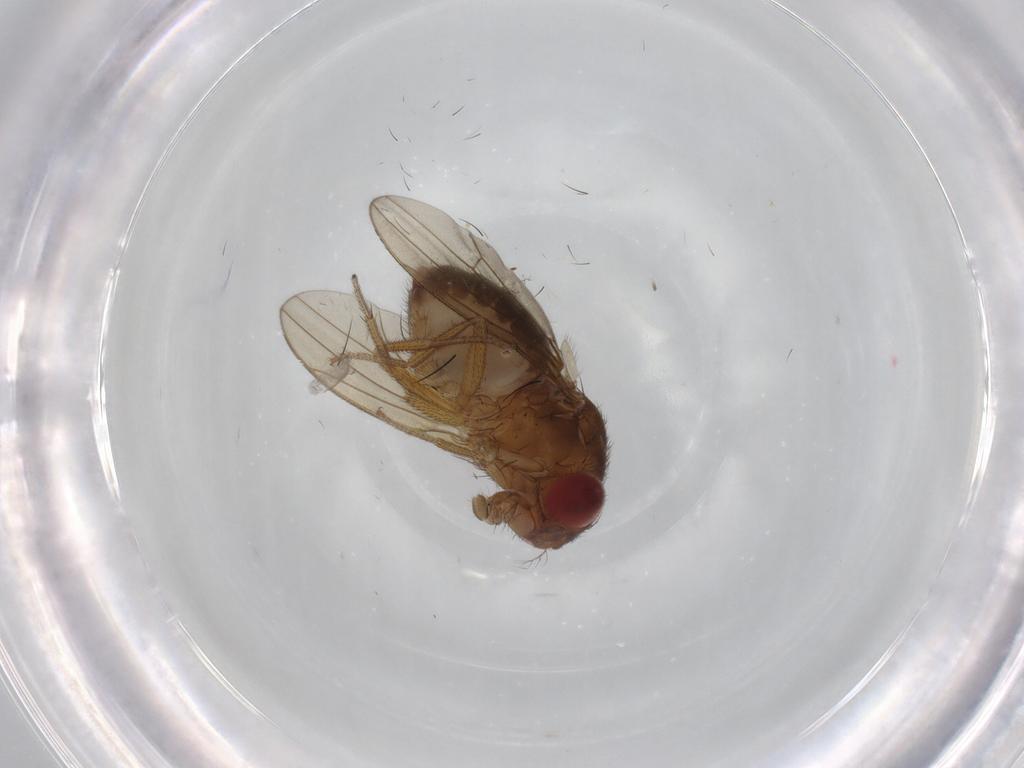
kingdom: Animalia
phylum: Arthropoda
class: Insecta
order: Diptera
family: Drosophilidae
